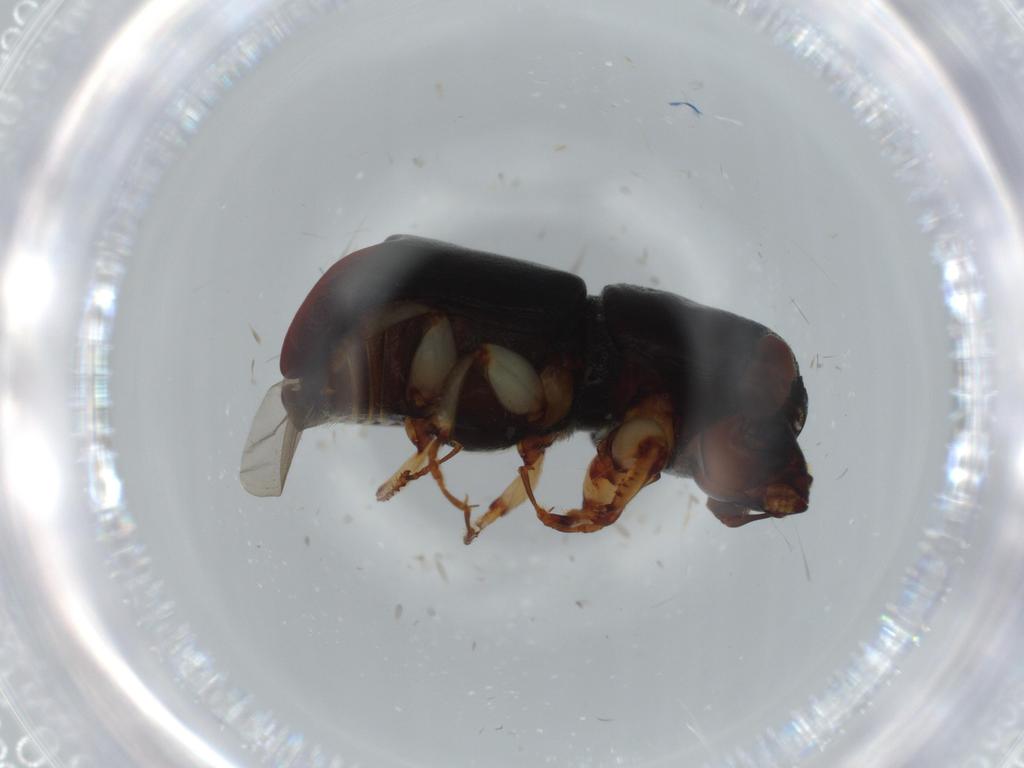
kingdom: Animalia
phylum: Arthropoda
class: Insecta
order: Coleoptera
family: Curculionidae
